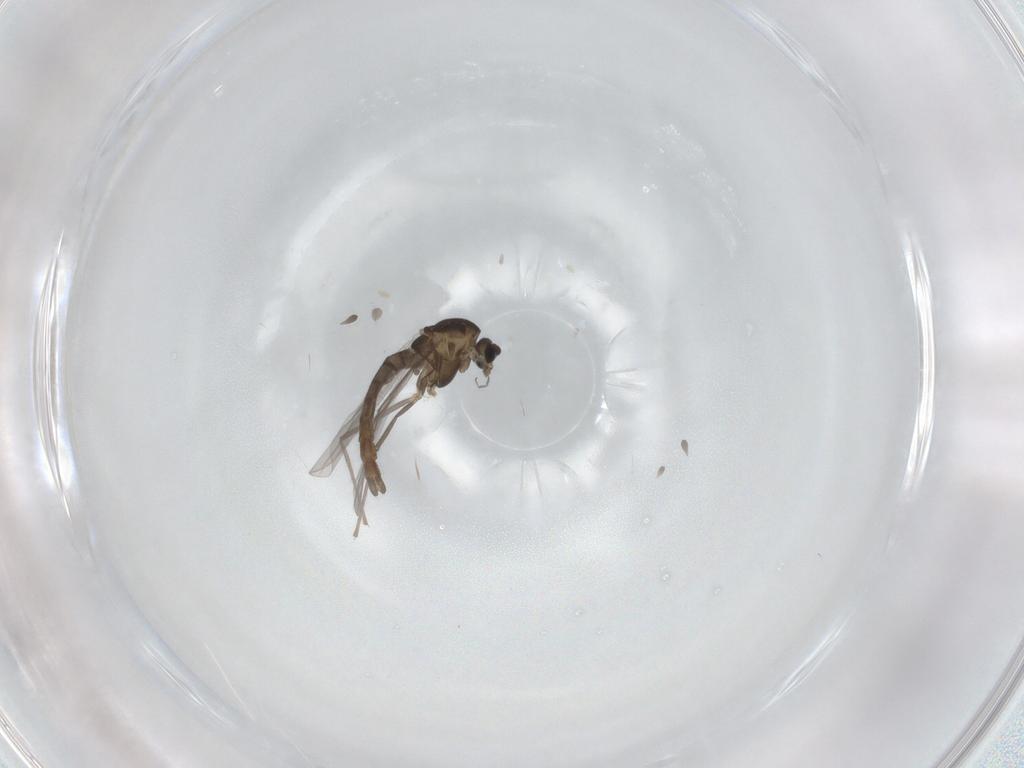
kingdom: Animalia
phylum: Arthropoda
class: Insecta
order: Diptera
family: Chironomidae
